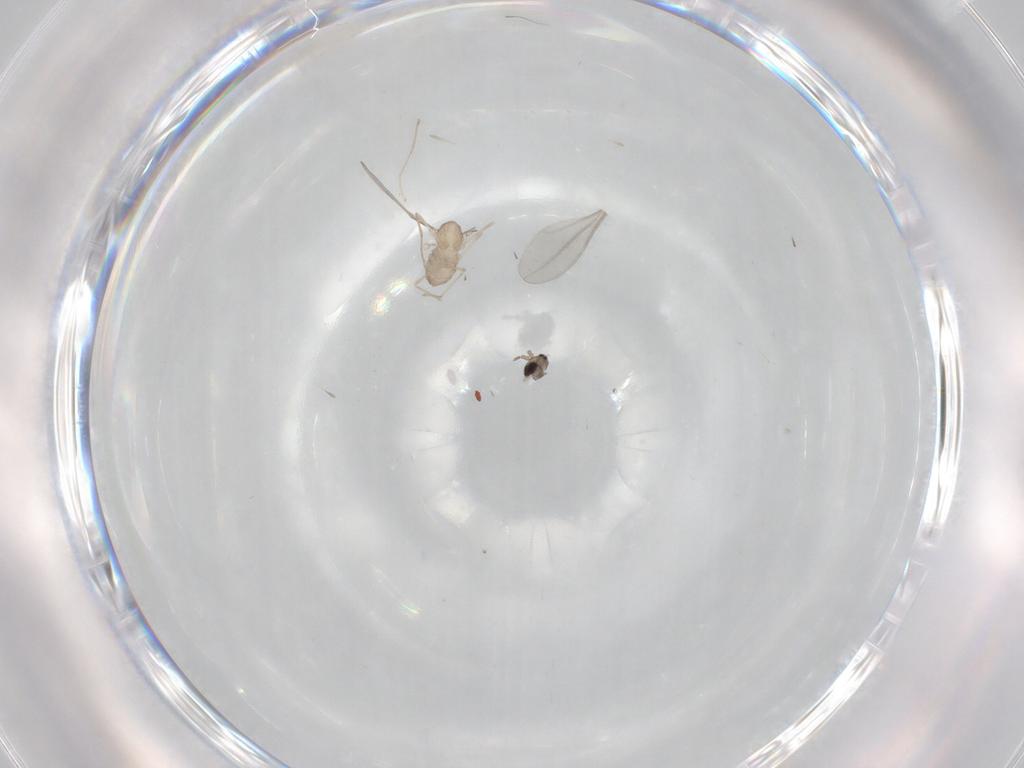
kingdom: Animalia
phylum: Arthropoda
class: Insecta
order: Diptera
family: Cecidomyiidae
